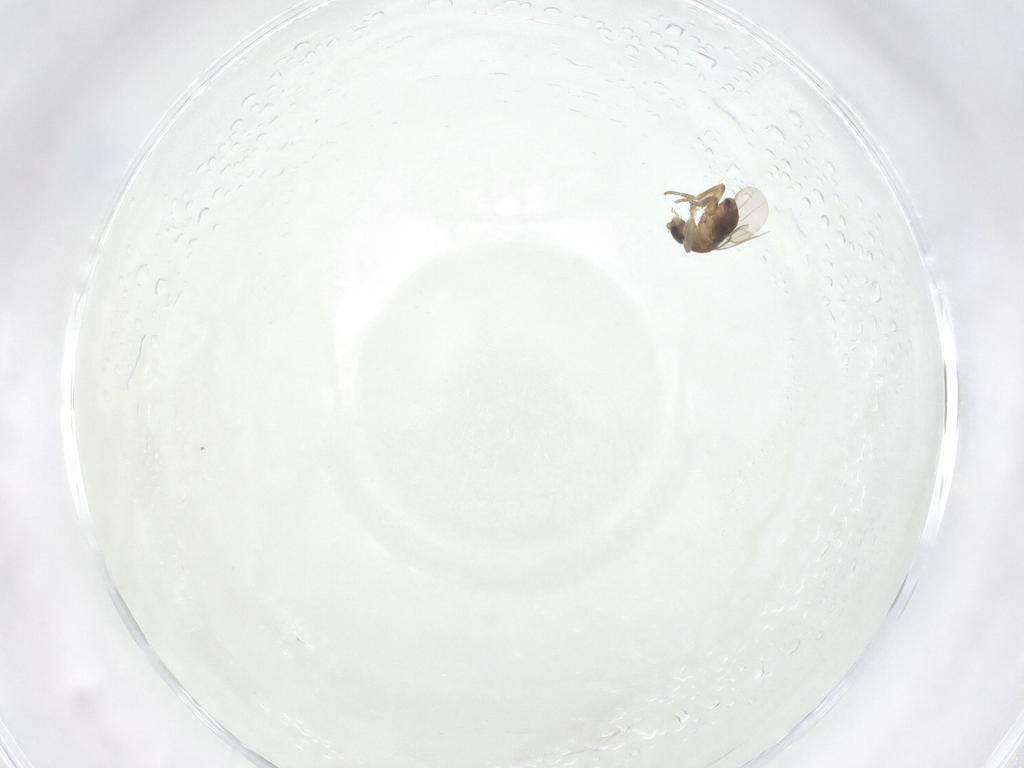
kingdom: Animalia
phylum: Arthropoda
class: Insecta
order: Diptera
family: Phoridae
